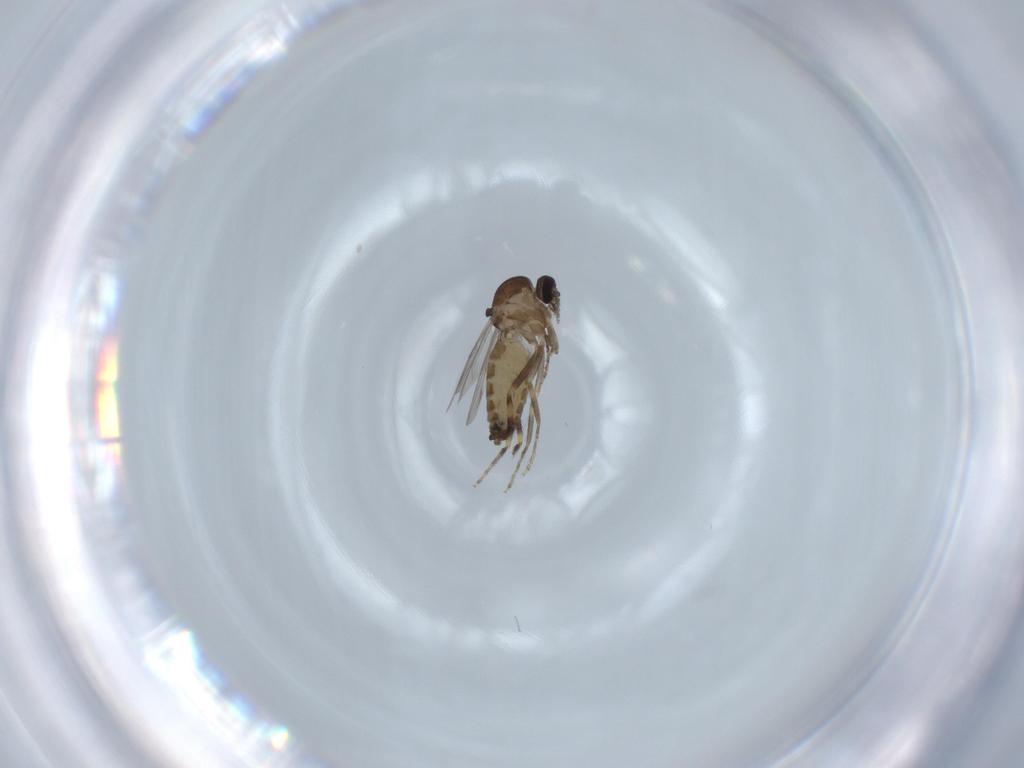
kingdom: Animalia
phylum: Arthropoda
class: Insecta
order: Diptera
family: Ceratopogonidae
